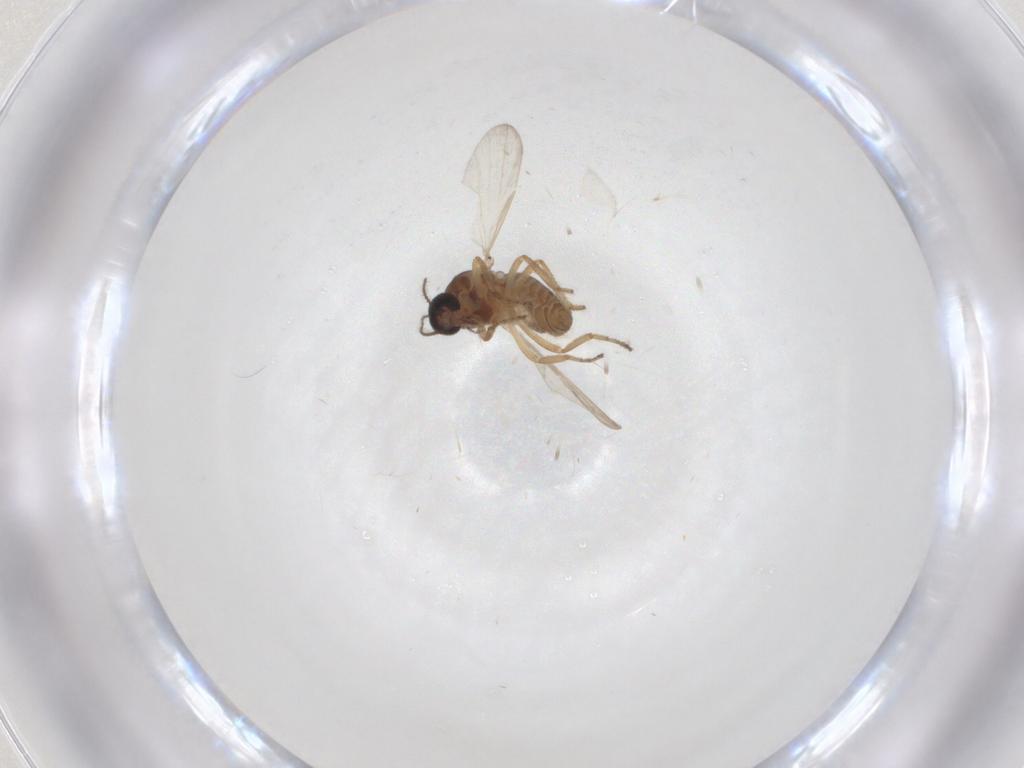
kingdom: Animalia
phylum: Arthropoda
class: Insecta
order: Diptera
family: Ceratopogonidae
